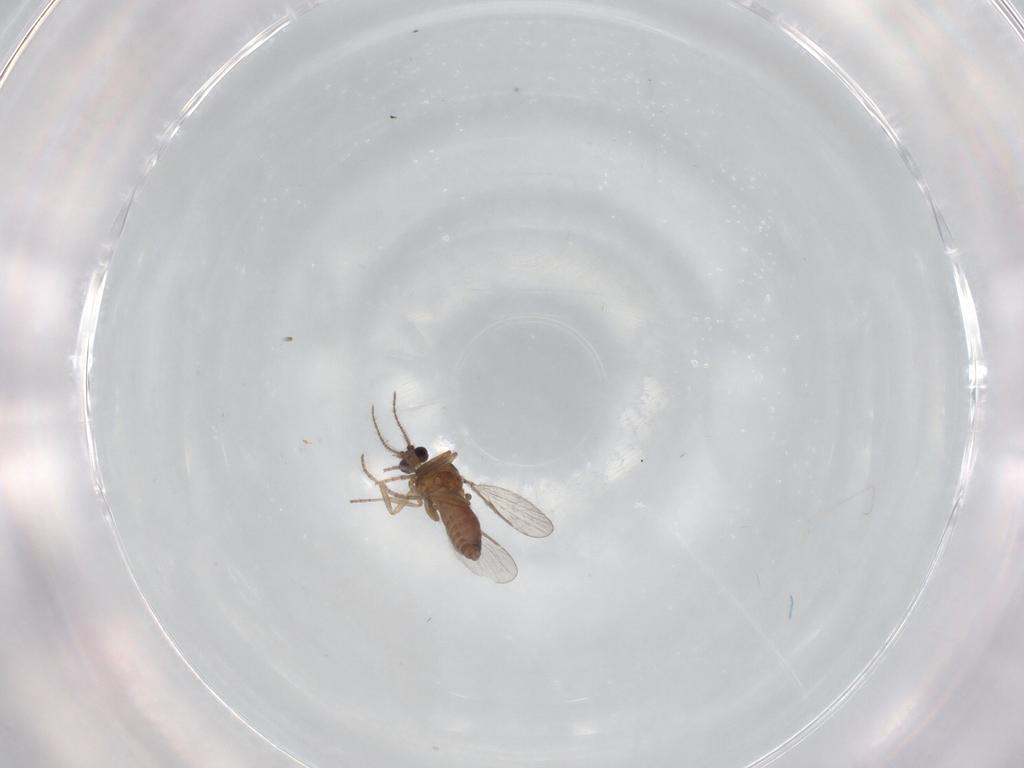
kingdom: Animalia
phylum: Arthropoda
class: Insecta
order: Diptera
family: Ceratopogonidae
